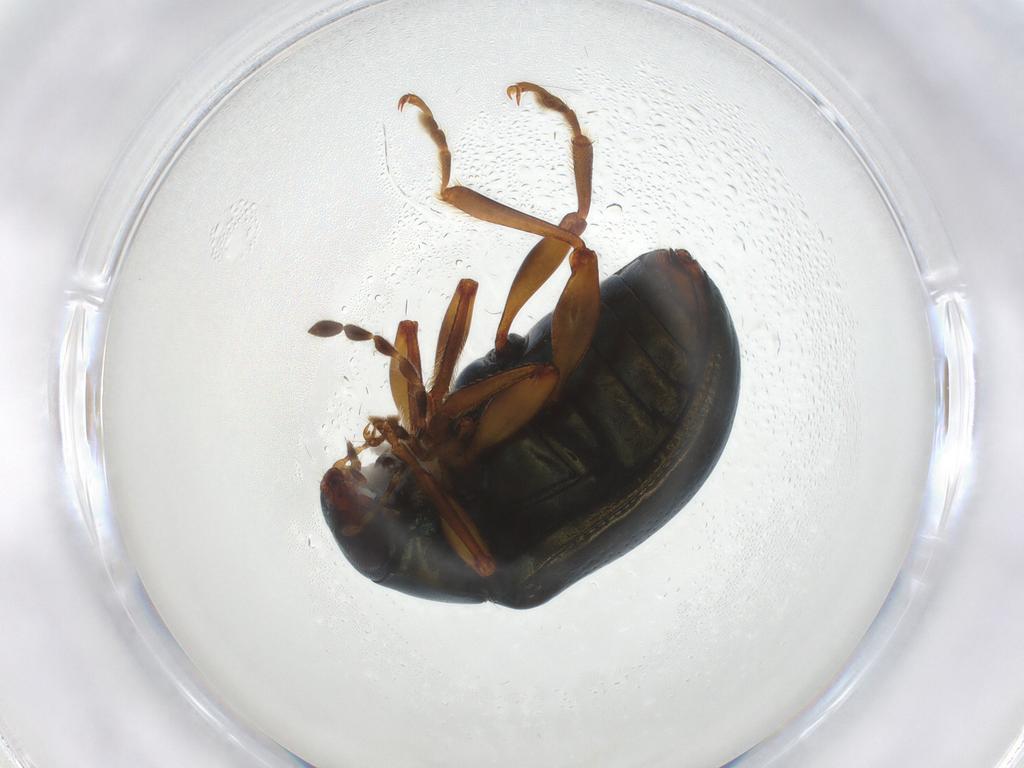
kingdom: Animalia
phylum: Arthropoda
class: Insecta
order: Coleoptera
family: Chrysomelidae
